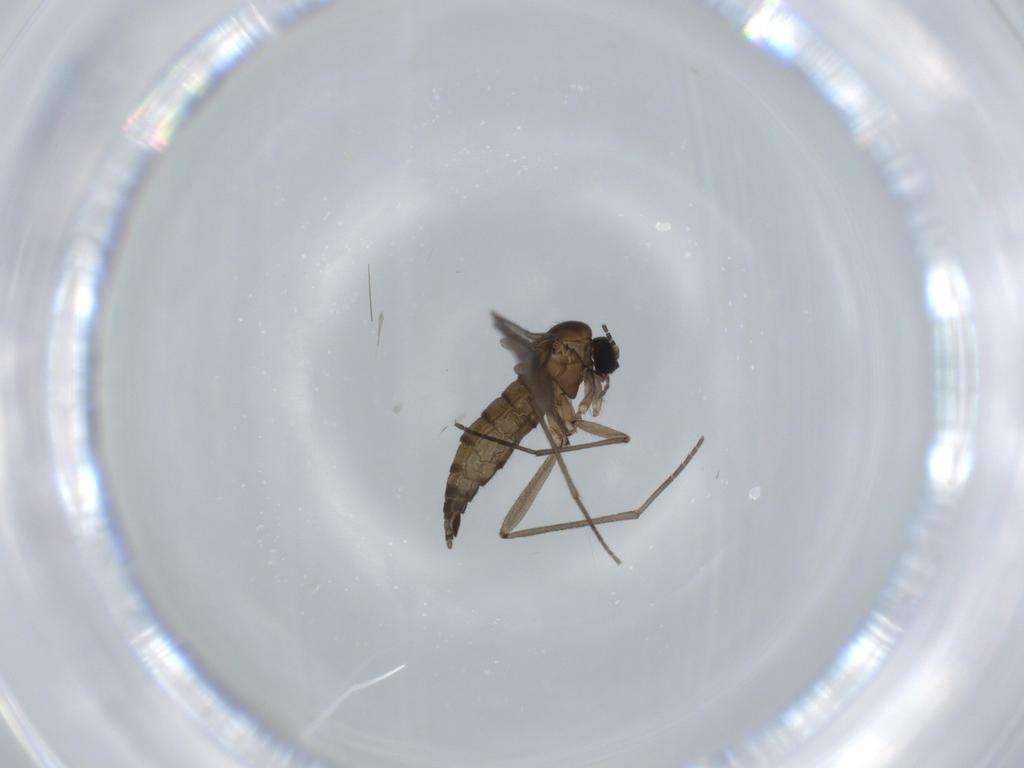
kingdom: Animalia
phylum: Arthropoda
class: Insecta
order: Diptera
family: Sciaridae
